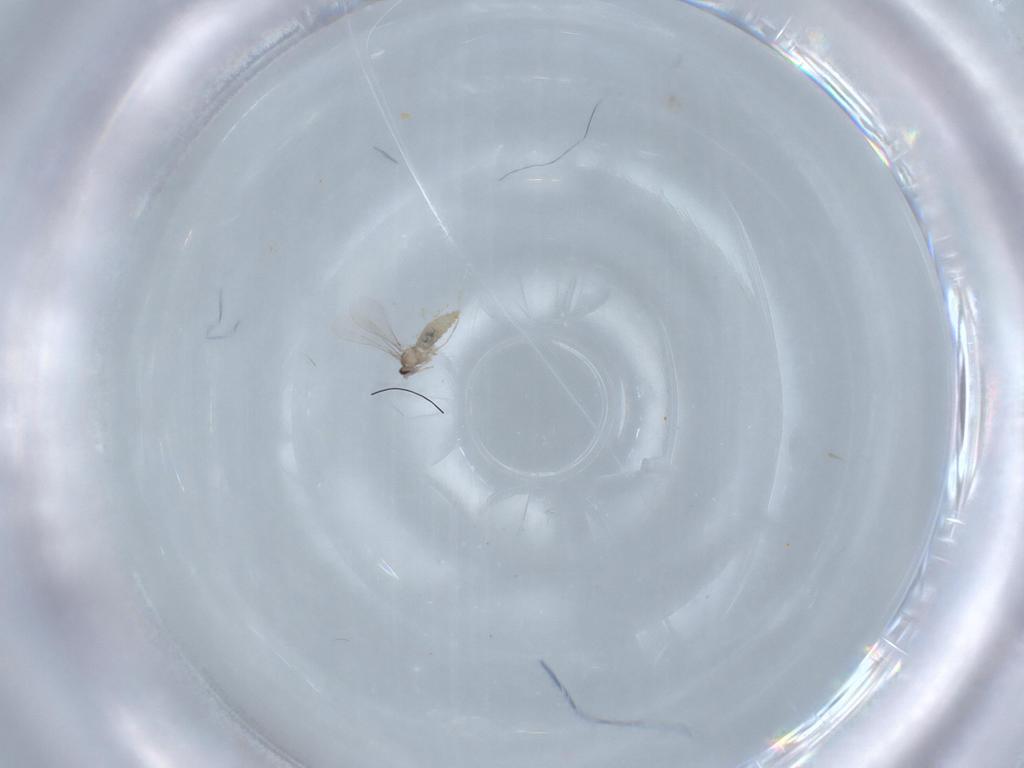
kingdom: Animalia
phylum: Arthropoda
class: Insecta
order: Diptera
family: Cecidomyiidae
